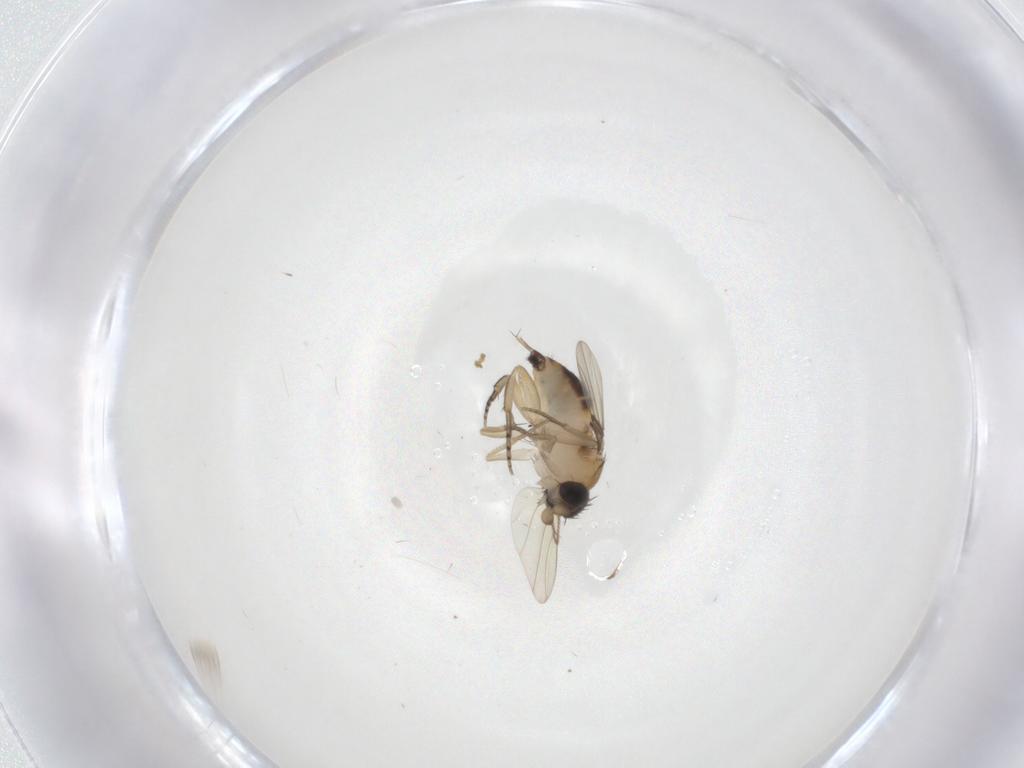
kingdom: Animalia
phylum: Arthropoda
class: Insecta
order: Diptera
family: Phoridae
